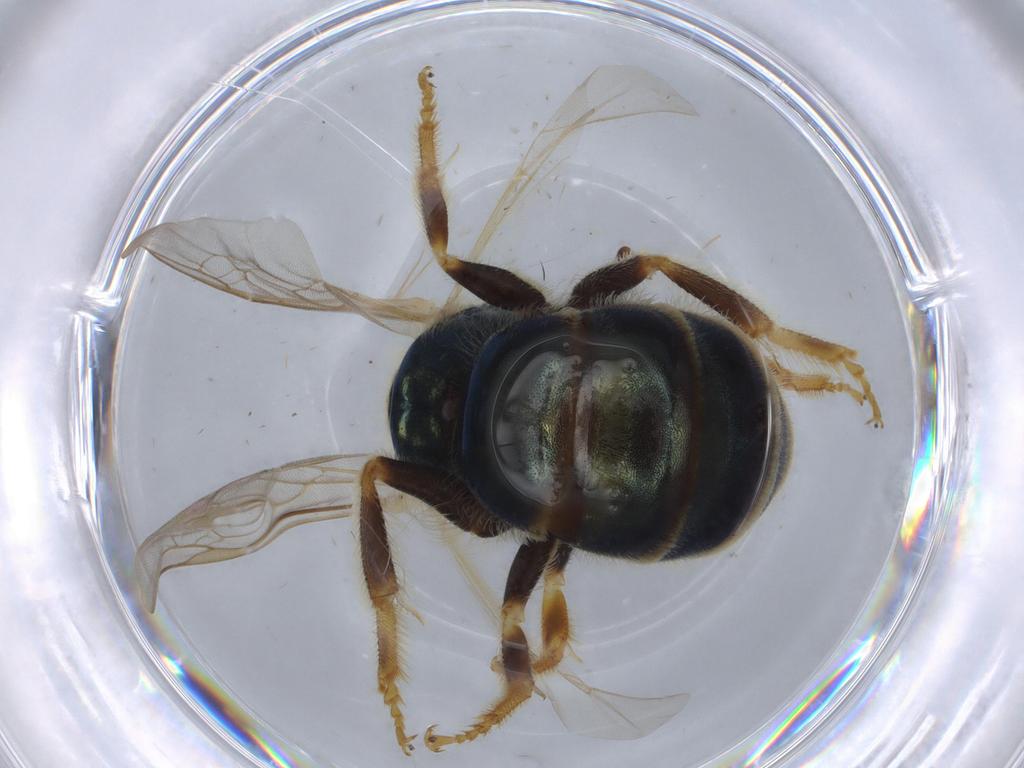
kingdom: Animalia
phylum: Arthropoda
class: Insecta
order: Hymenoptera
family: Halictidae
